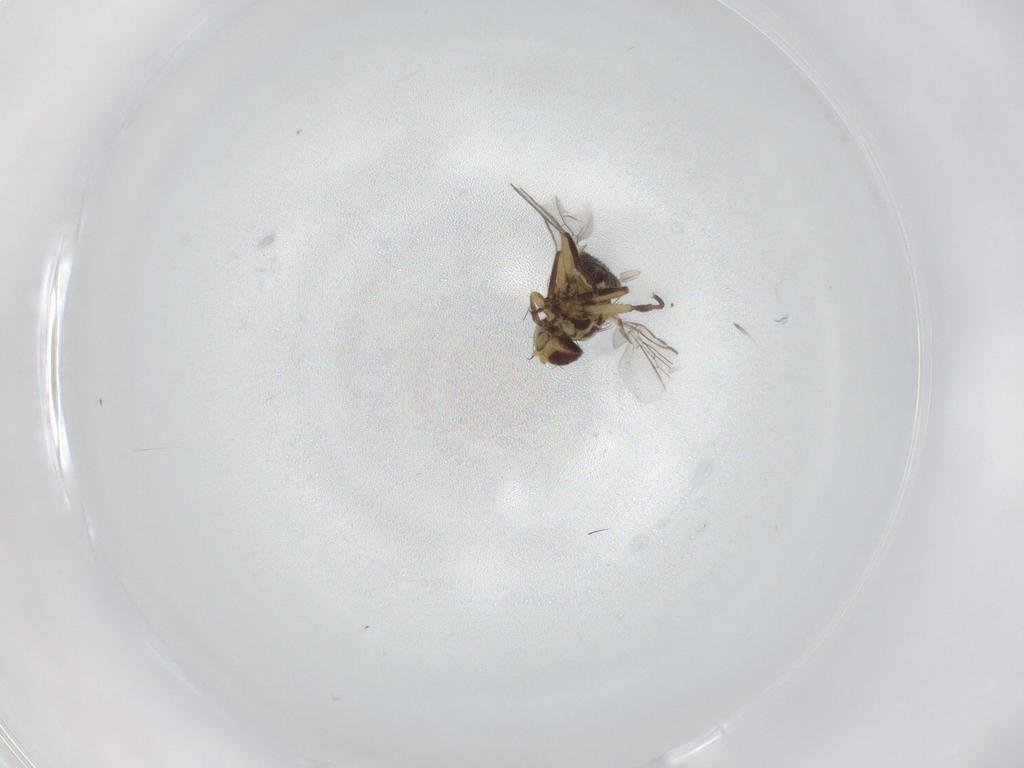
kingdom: Animalia
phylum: Arthropoda
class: Insecta
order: Diptera
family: Agromyzidae
